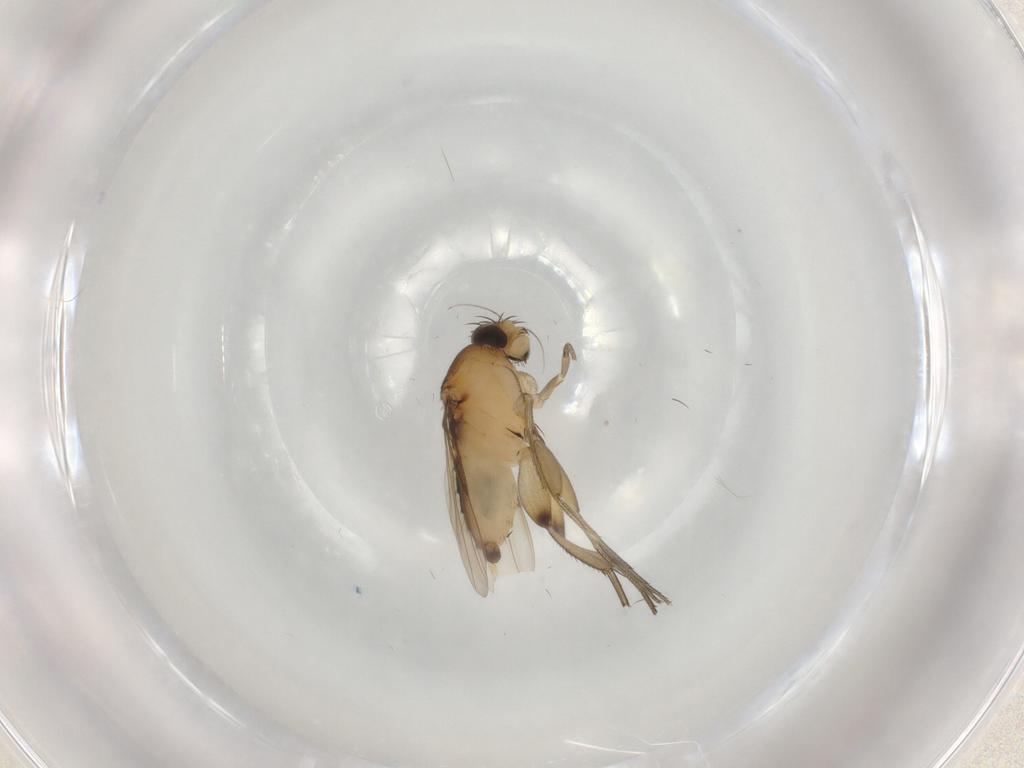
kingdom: Animalia
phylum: Arthropoda
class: Insecta
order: Diptera
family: Phoridae
